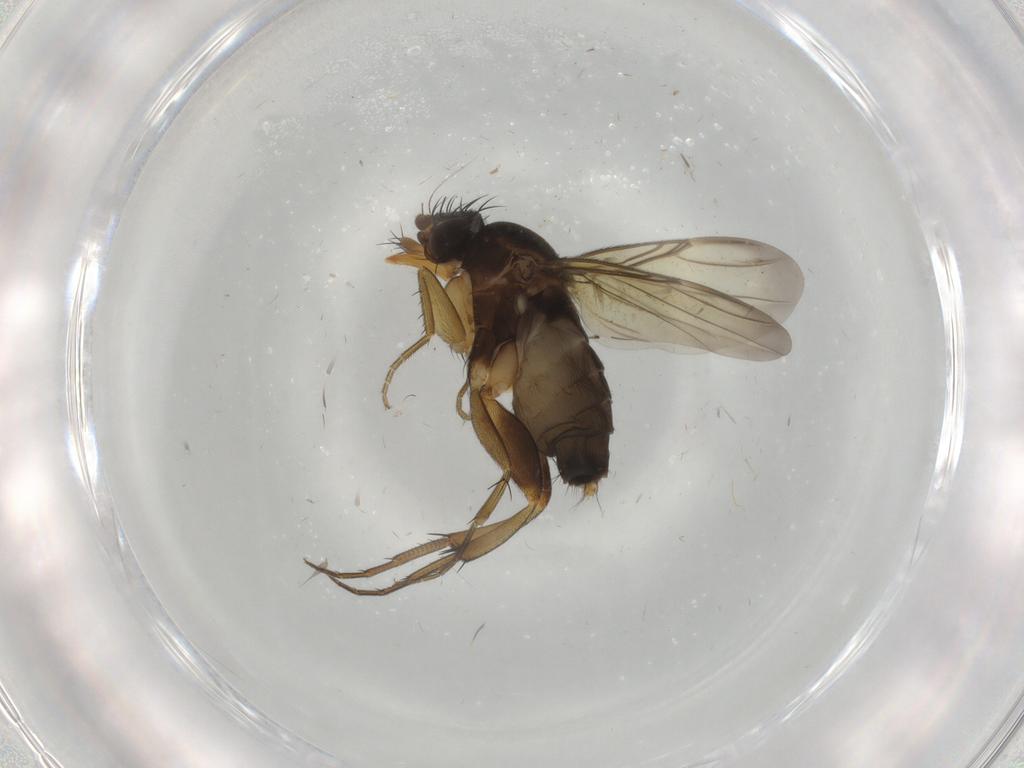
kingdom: Animalia
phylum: Arthropoda
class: Insecta
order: Diptera
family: Phoridae
